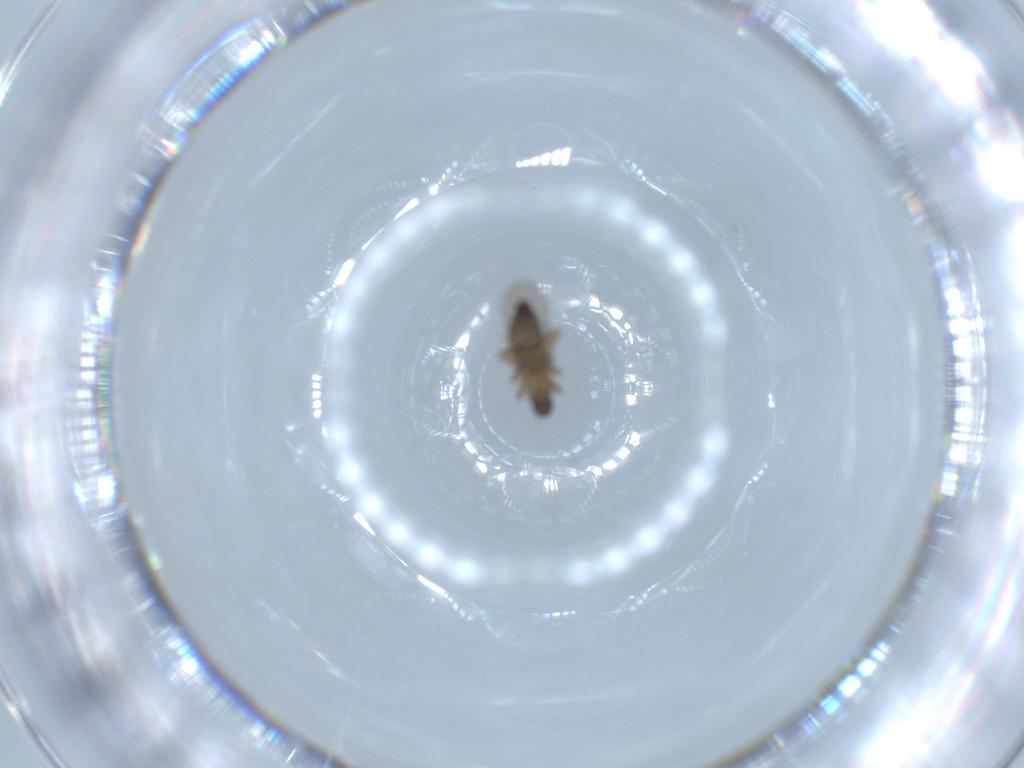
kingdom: Animalia
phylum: Arthropoda
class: Insecta
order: Diptera
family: Phoridae
